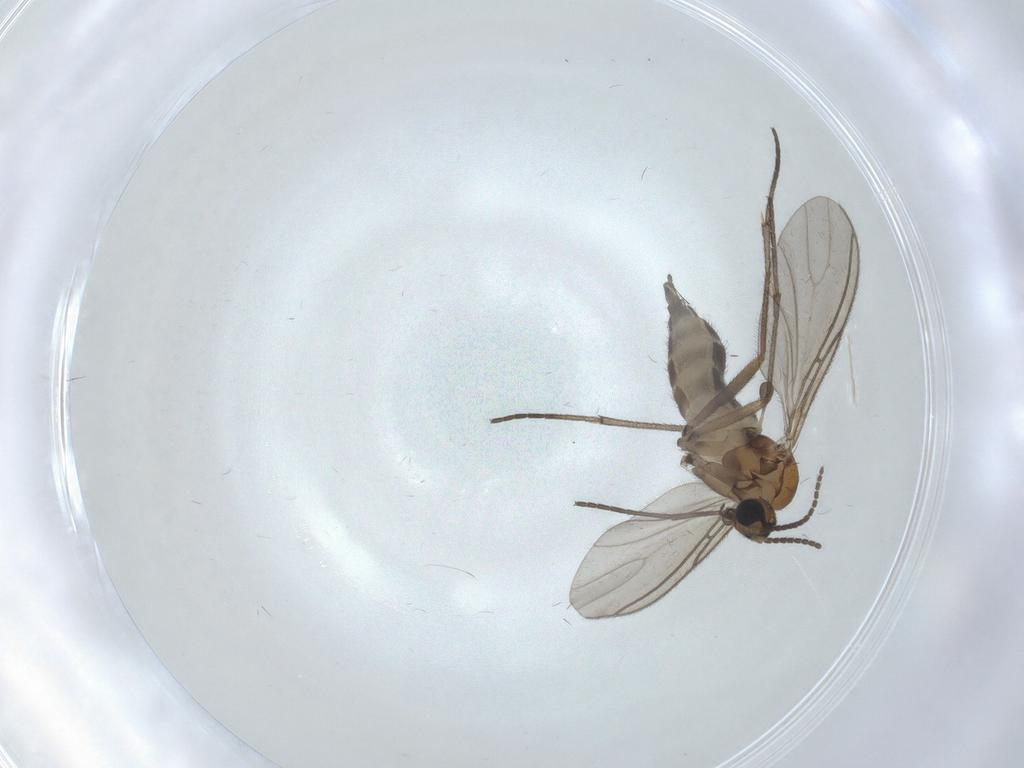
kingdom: Animalia
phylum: Arthropoda
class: Insecta
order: Diptera
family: Sciaridae
